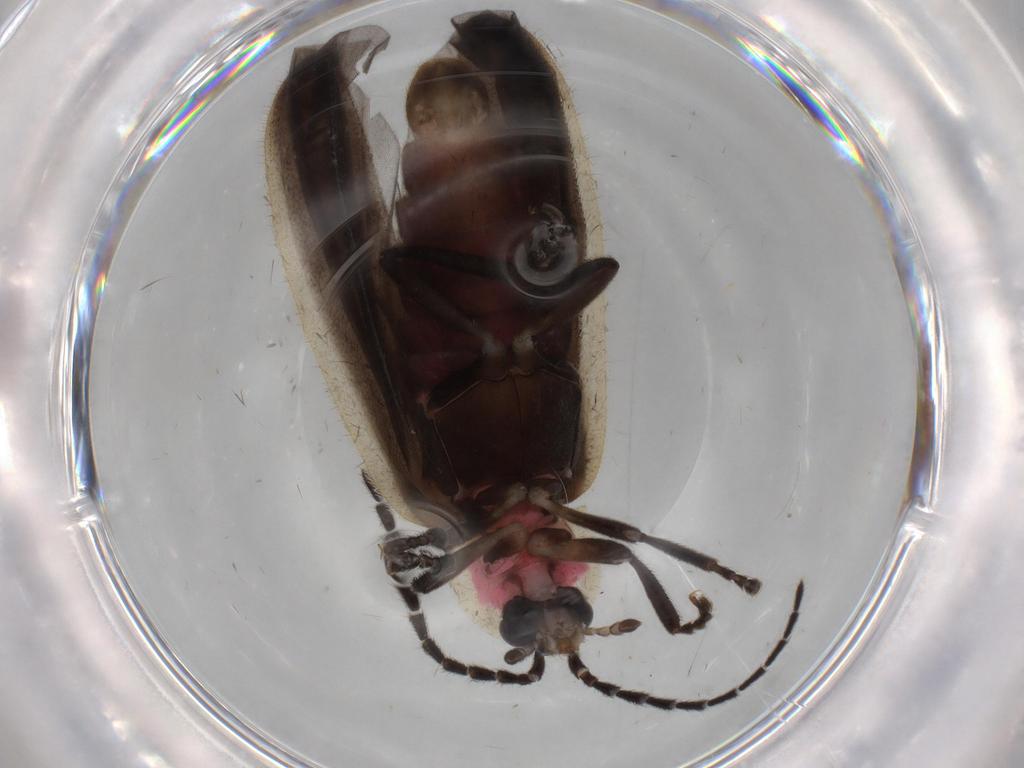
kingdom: Animalia
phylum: Arthropoda
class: Insecta
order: Coleoptera
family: Lampyridae
